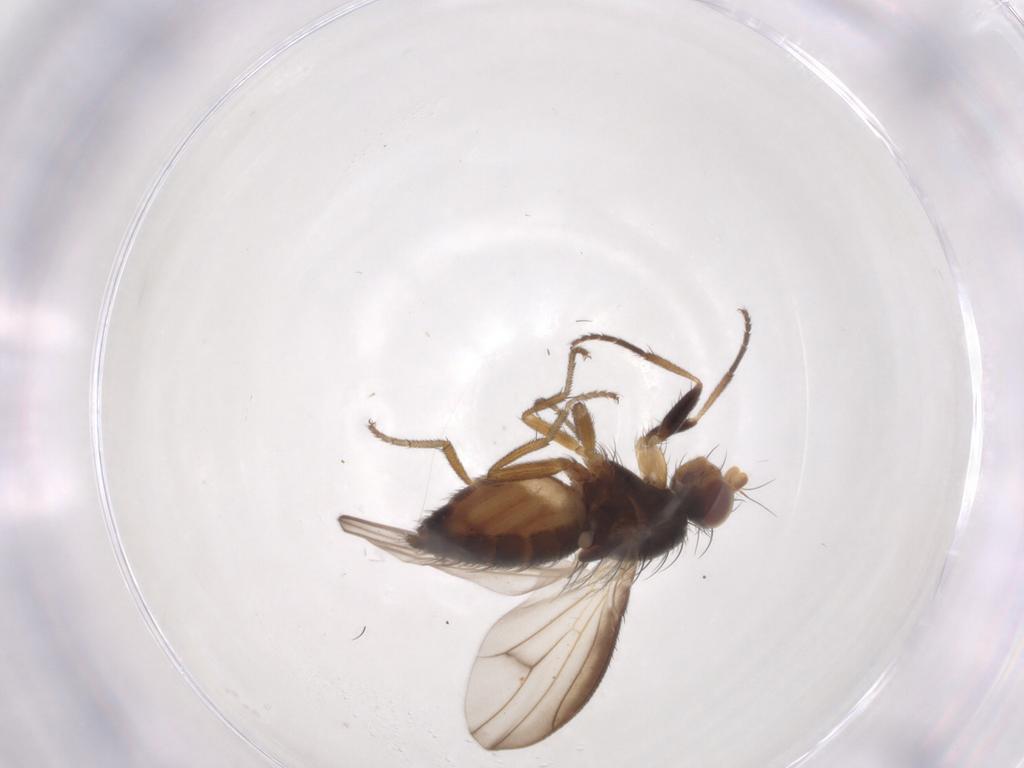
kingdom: Animalia
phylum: Arthropoda
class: Insecta
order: Diptera
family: Heleomyzidae
